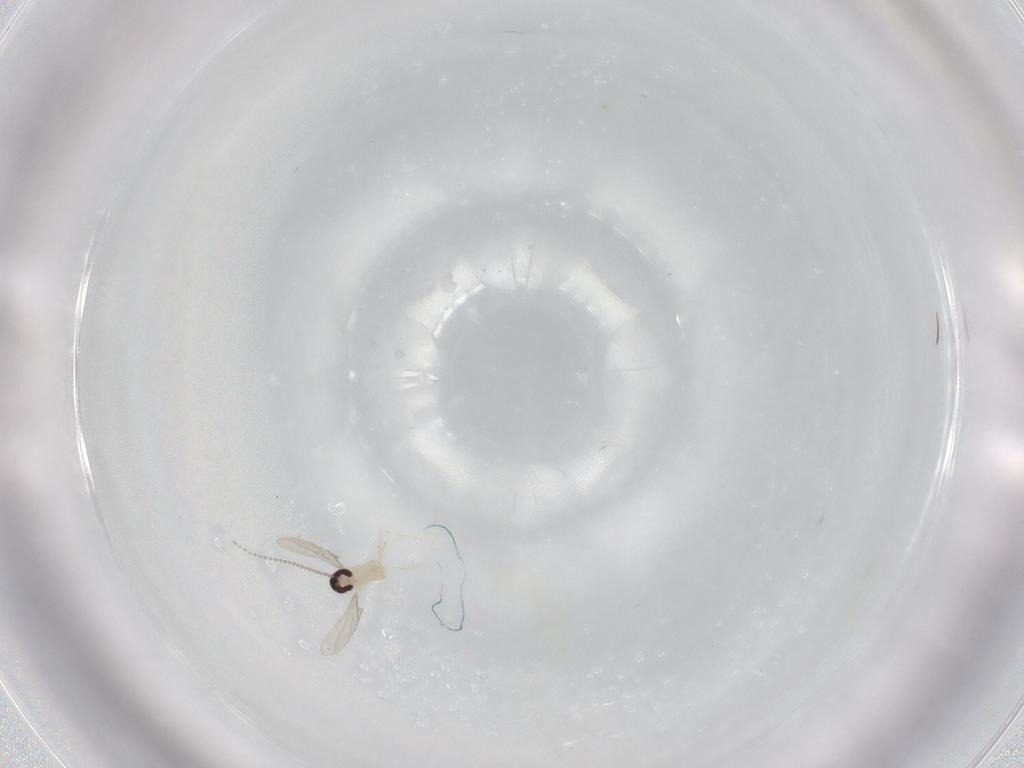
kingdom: Animalia
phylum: Arthropoda
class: Insecta
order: Diptera
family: Cecidomyiidae
